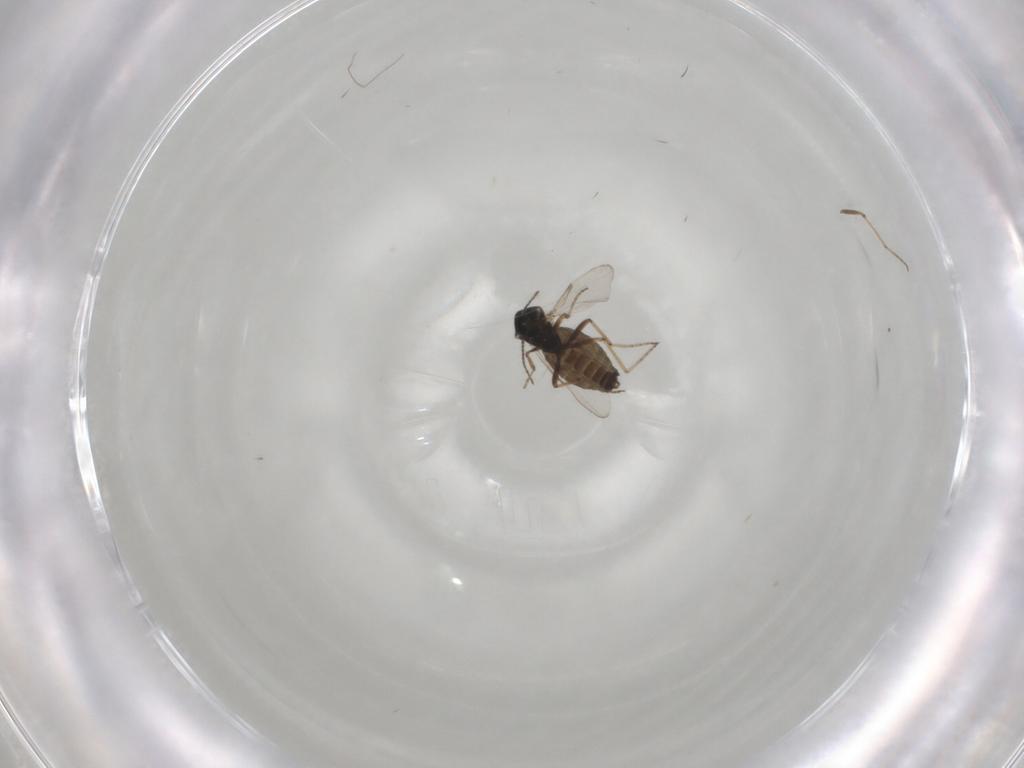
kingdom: Animalia
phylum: Arthropoda
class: Insecta
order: Diptera
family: Ceratopogonidae
